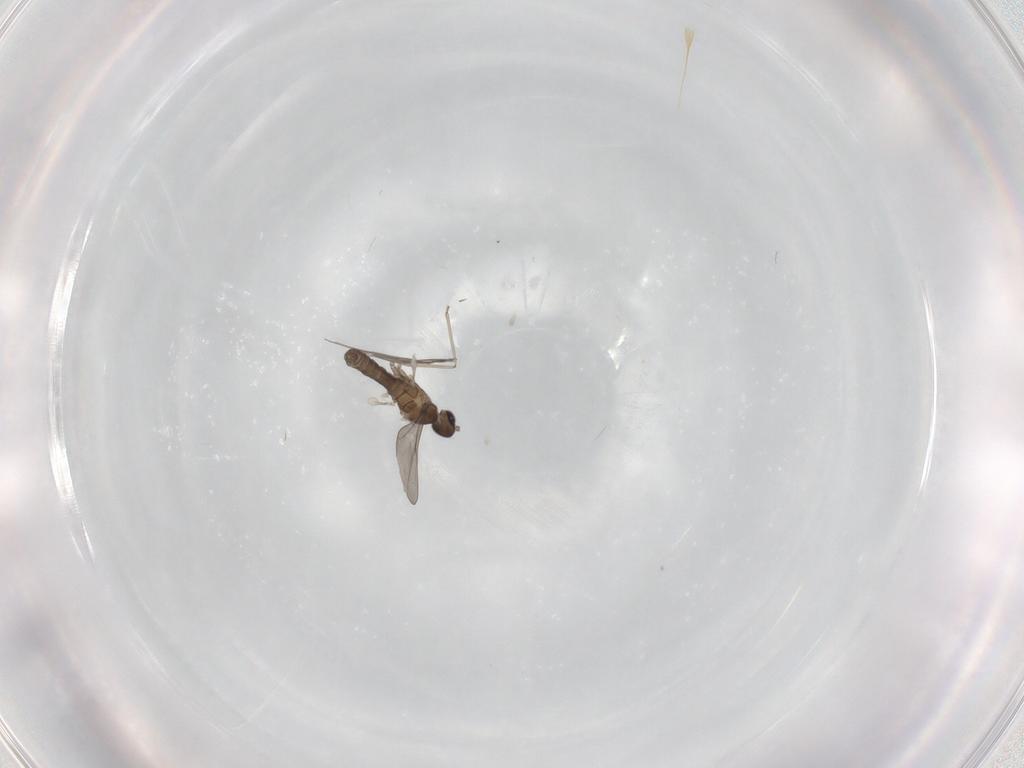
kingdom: Animalia
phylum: Arthropoda
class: Insecta
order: Diptera
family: Cecidomyiidae
